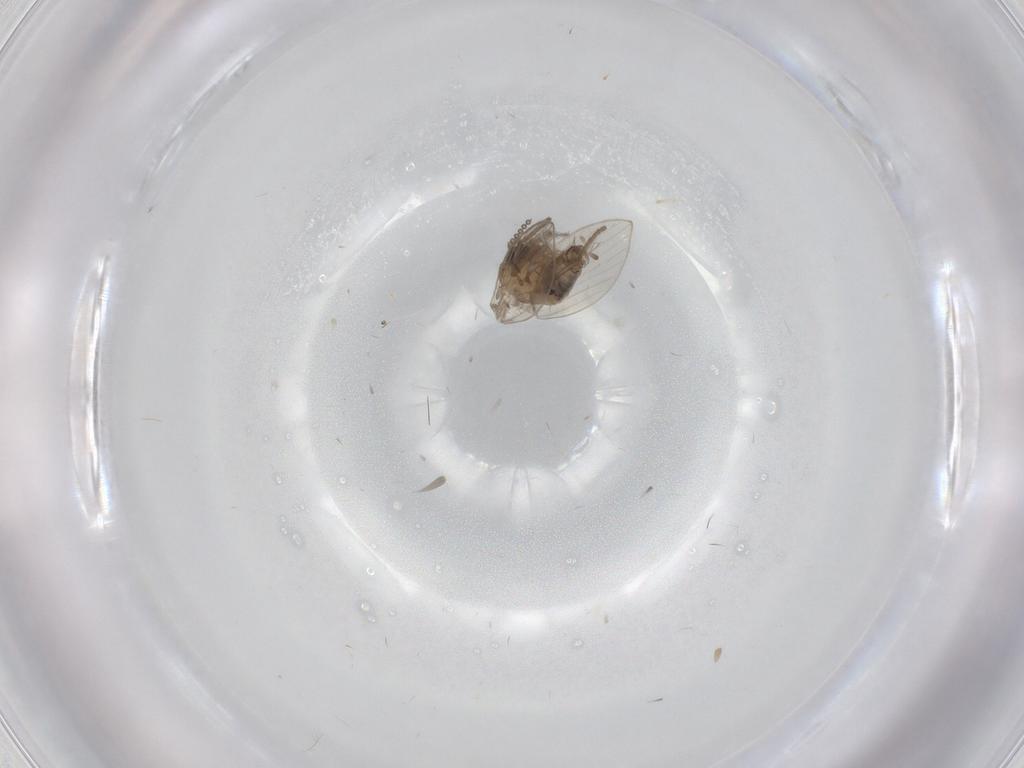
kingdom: Animalia
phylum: Arthropoda
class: Insecta
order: Diptera
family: Psychodidae
